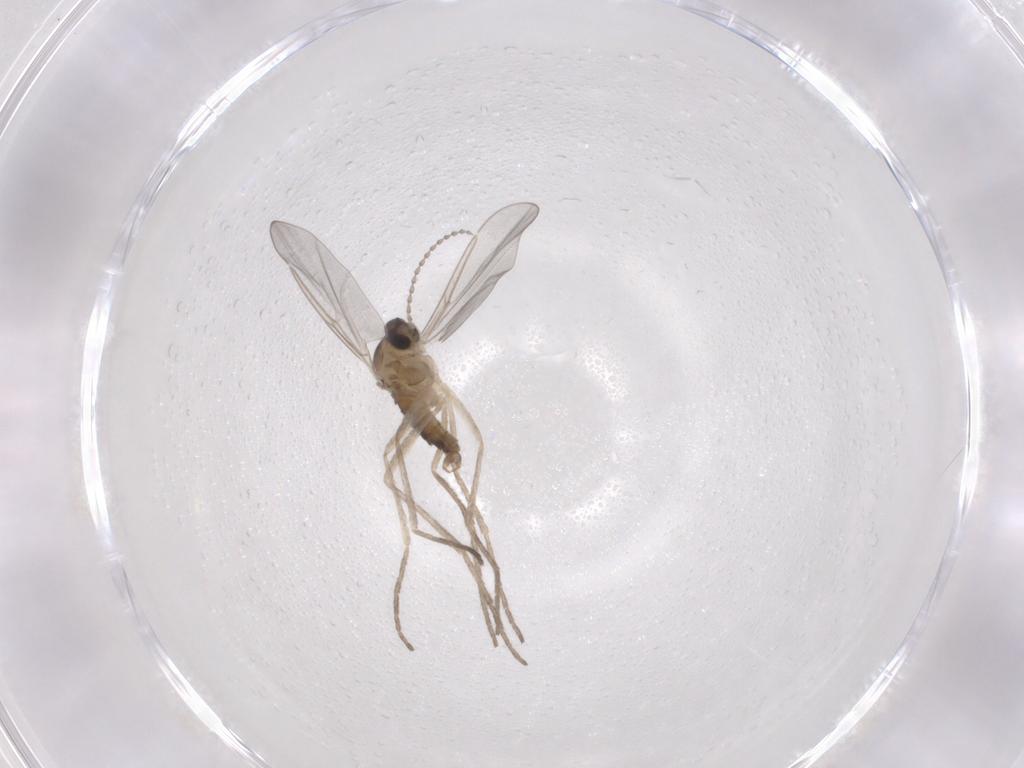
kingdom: Animalia
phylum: Arthropoda
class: Insecta
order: Diptera
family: Cecidomyiidae
